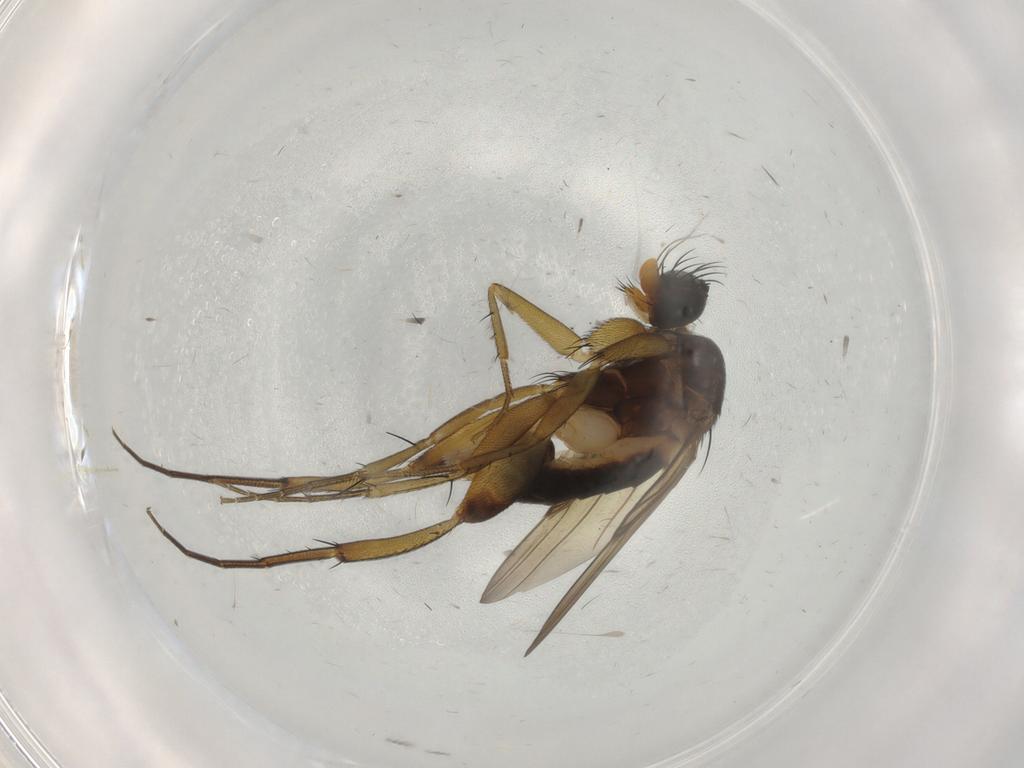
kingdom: Animalia
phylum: Arthropoda
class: Insecta
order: Diptera
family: Phoridae
